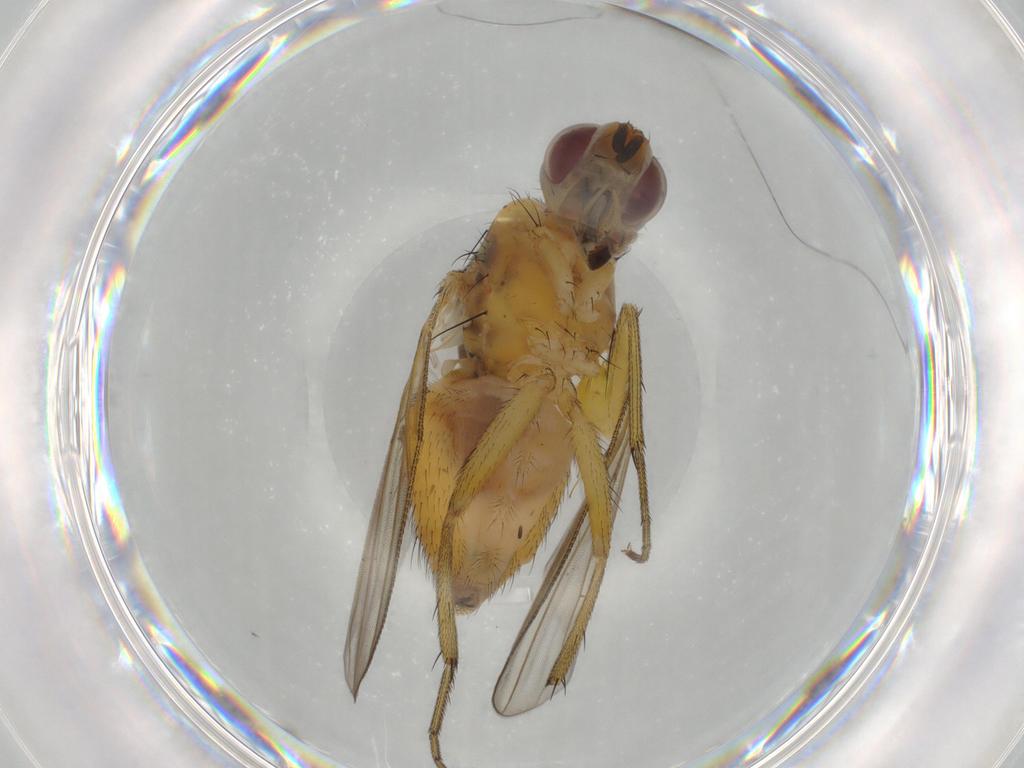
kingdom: Animalia
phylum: Arthropoda
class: Insecta
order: Diptera
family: Muscidae
